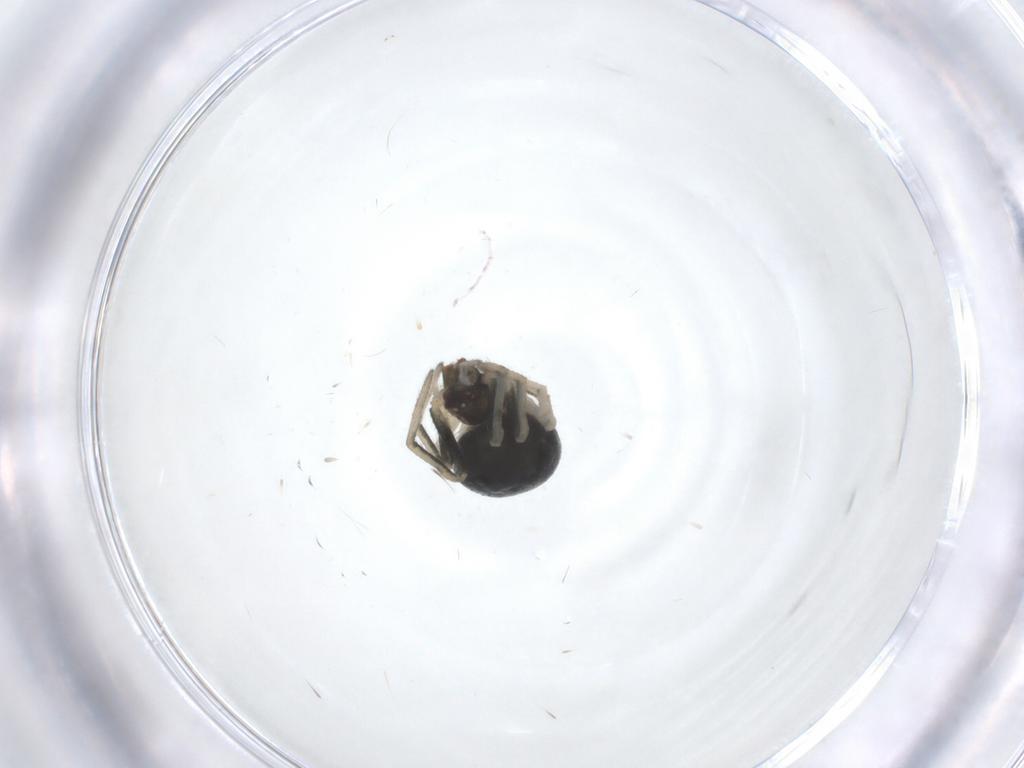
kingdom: Animalia
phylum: Arthropoda
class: Arachnida
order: Araneae
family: Theridiidae
